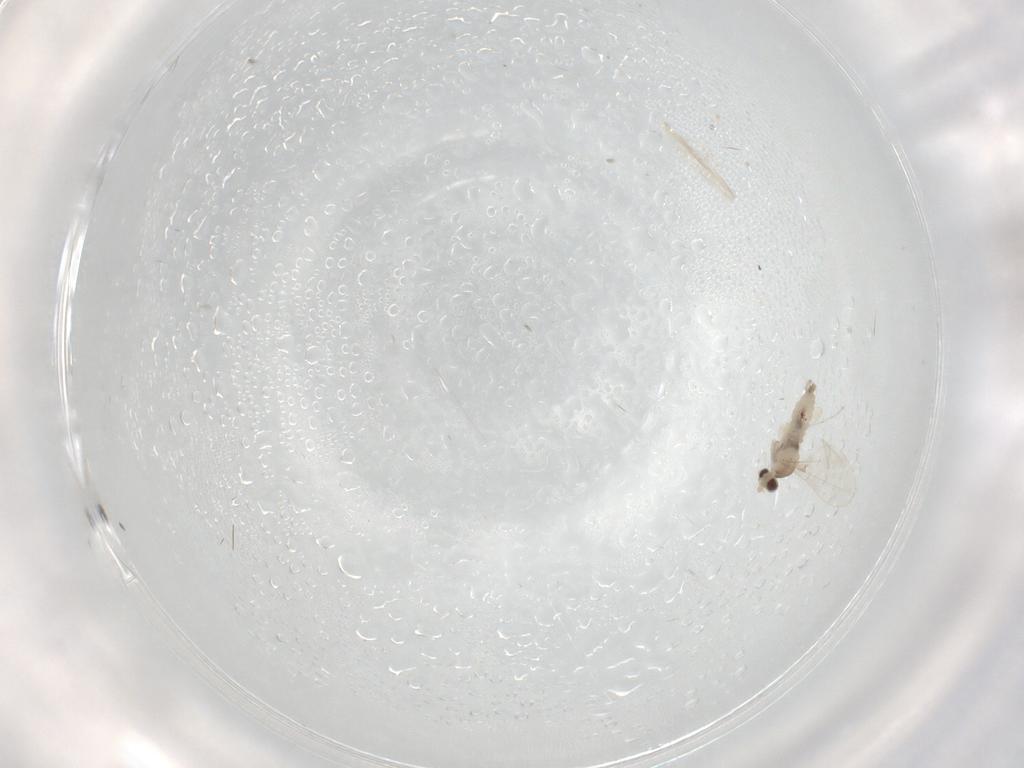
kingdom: Animalia
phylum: Arthropoda
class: Insecta
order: Diptera
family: Cecidomyiidae
